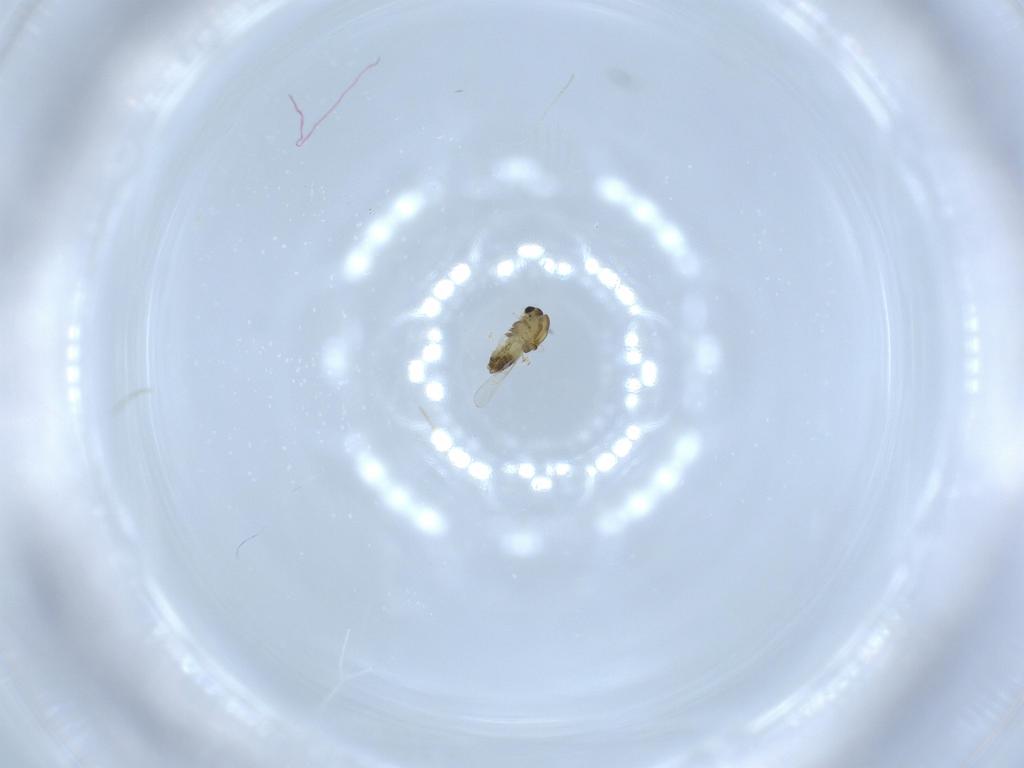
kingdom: Animalia
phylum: Arthropoda
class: Insecta
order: Diptera
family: Chironomidae
